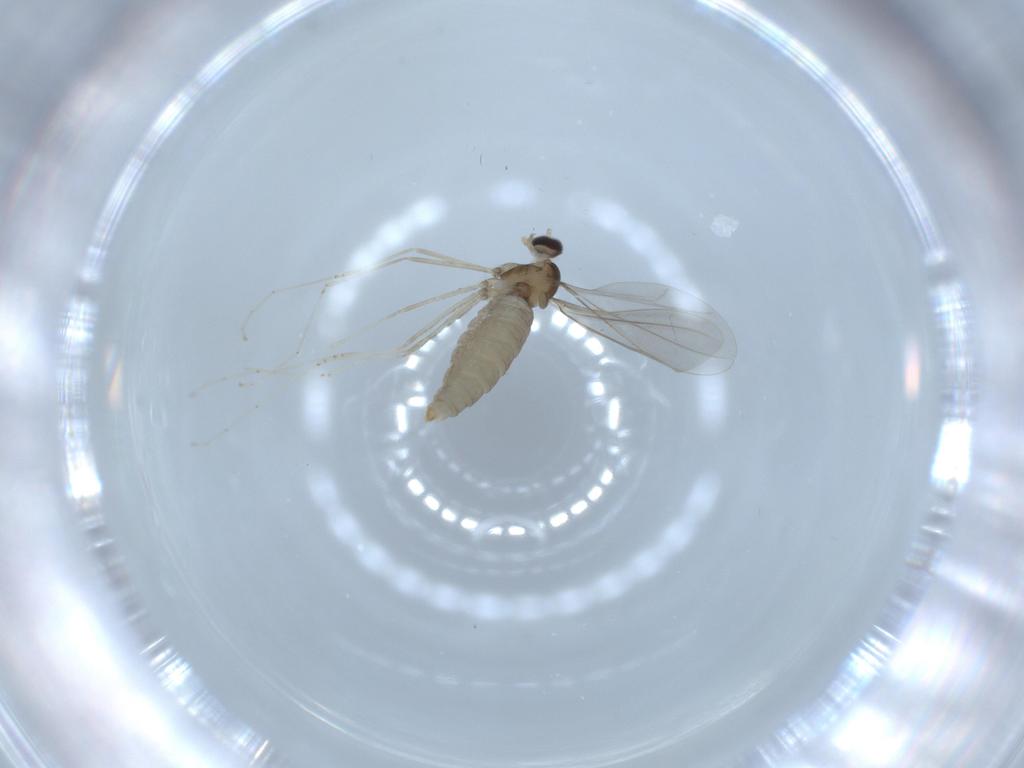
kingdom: Animalia
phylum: Arthropoda
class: Insecta
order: Diptera
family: Cecidomyiidae
